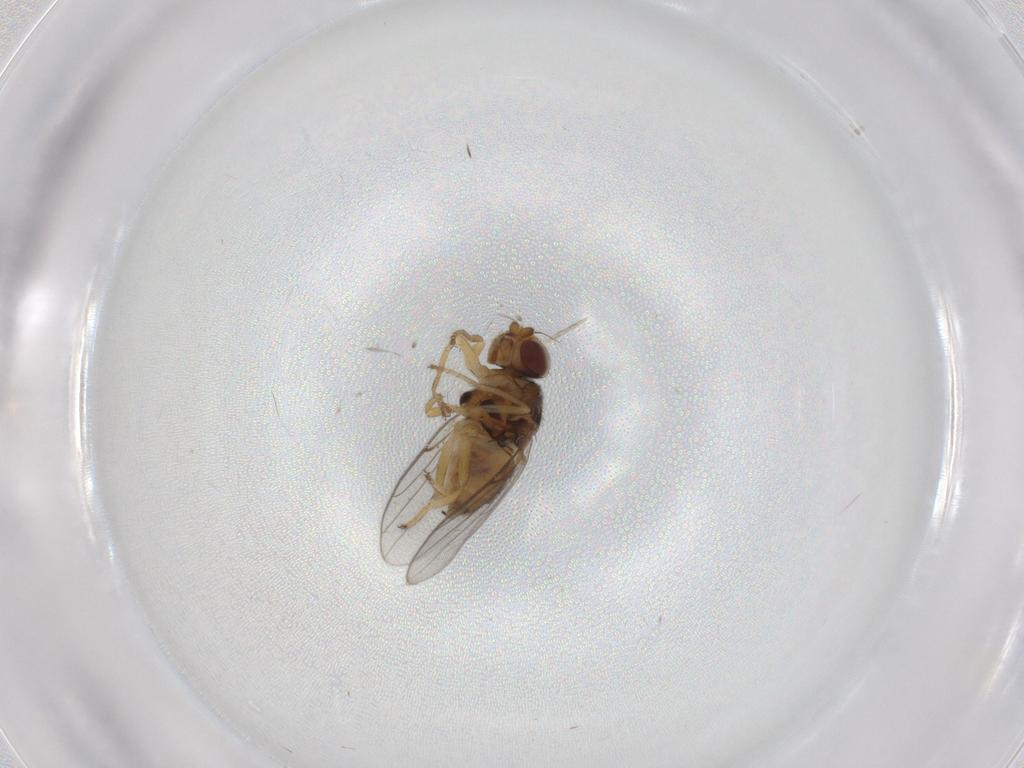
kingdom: Animalia
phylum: Arthropoda
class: Insecta
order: Diptera
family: Chloropidae
